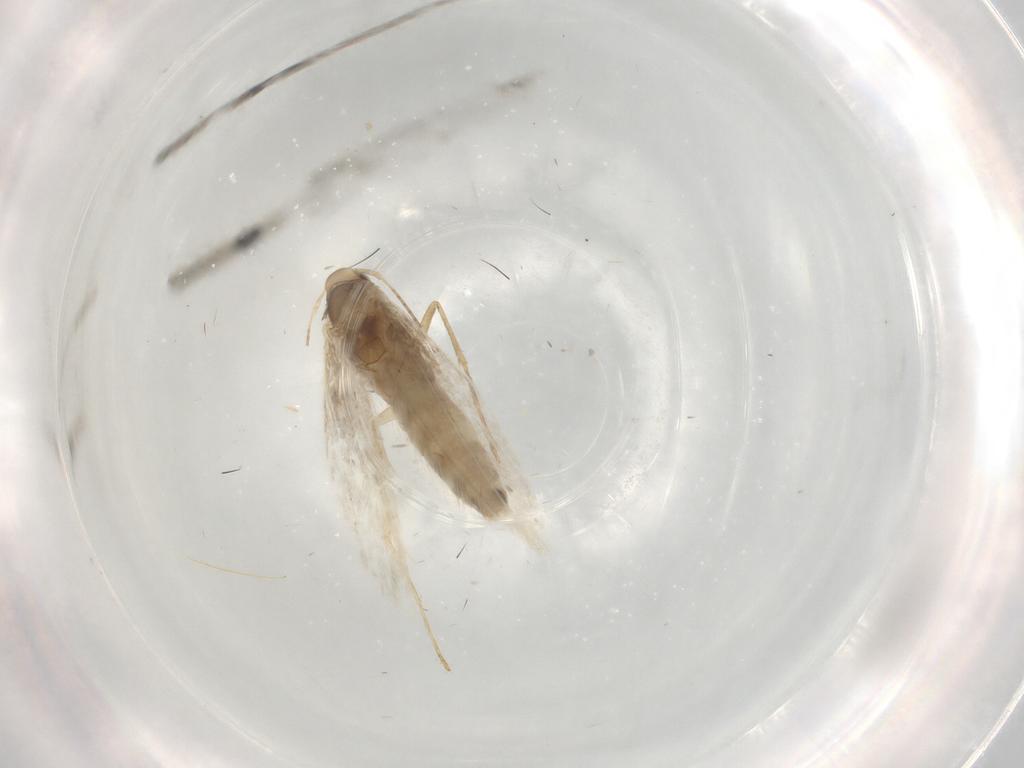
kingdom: Animalia
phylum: Arthropoda
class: Insecta
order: Lepidoptera
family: Gracillariidae
